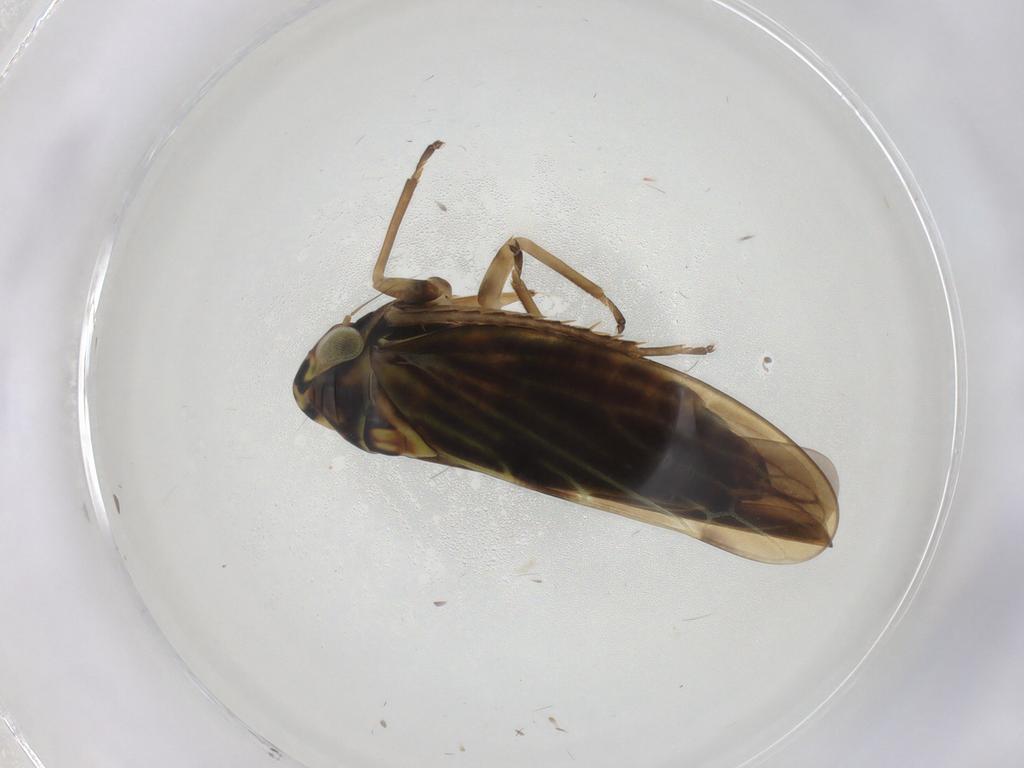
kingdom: Animalia
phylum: Arthropoda
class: Insecta
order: Hemiptera
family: Cicadellidae
